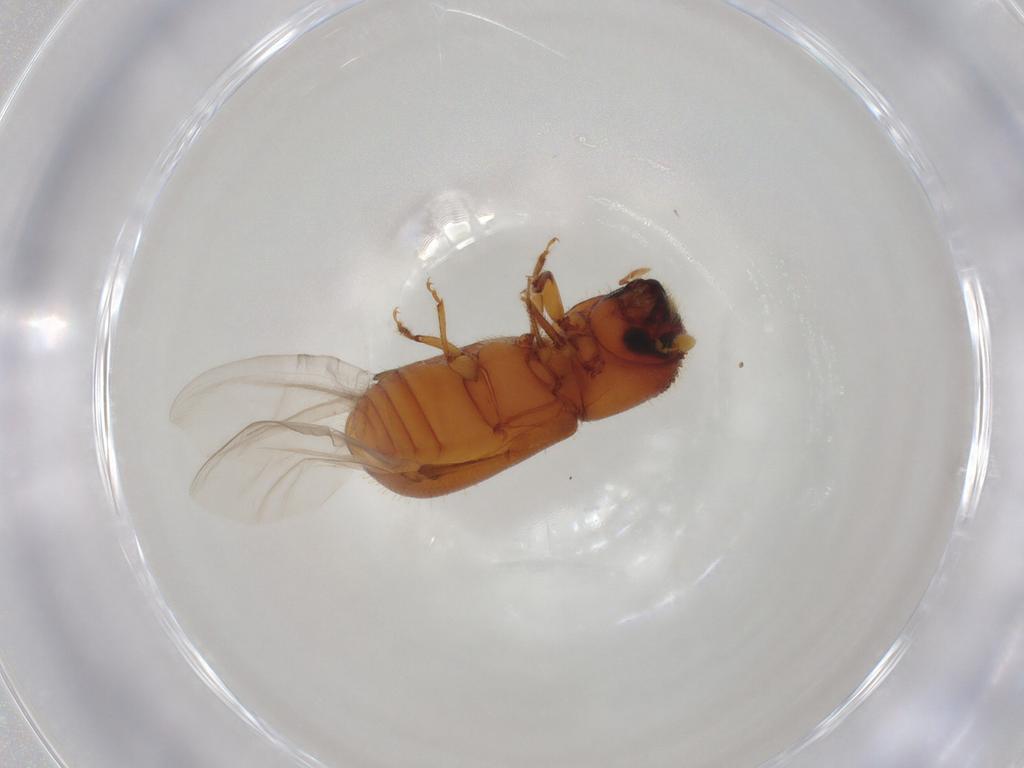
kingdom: Animalia
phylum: Arthropoda
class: Insecta
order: Coleoptera
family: Curculionidae
